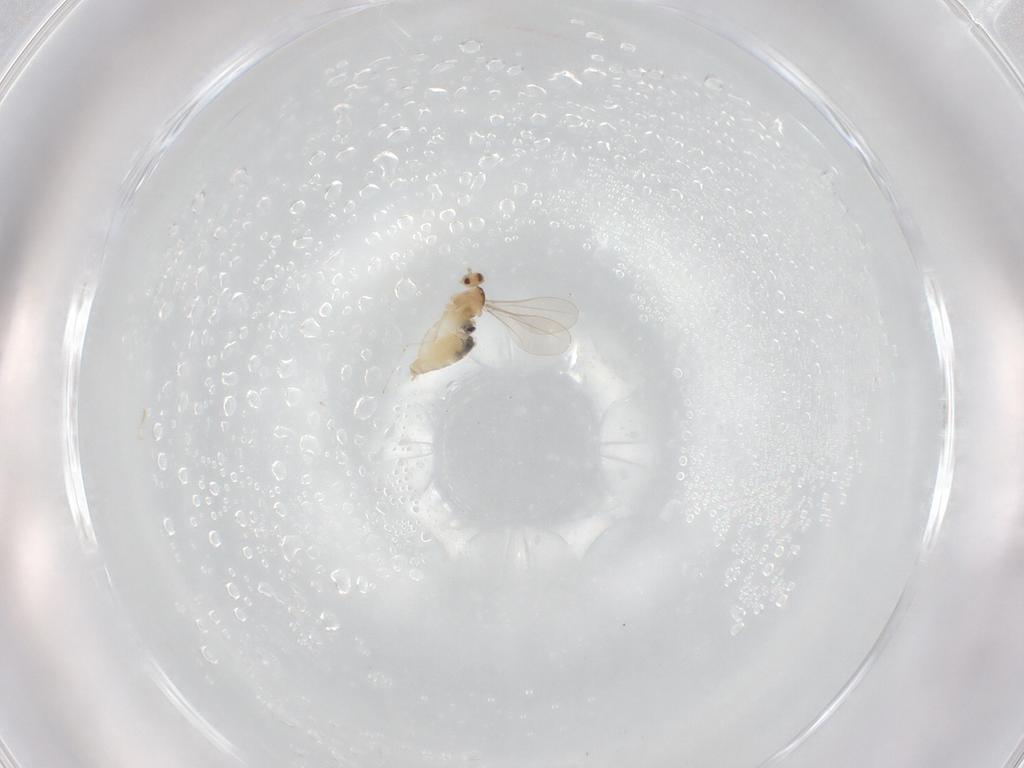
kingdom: Animalia
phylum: Arthropoda
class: Insecta
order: Diptera
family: Cecidomyiidae
